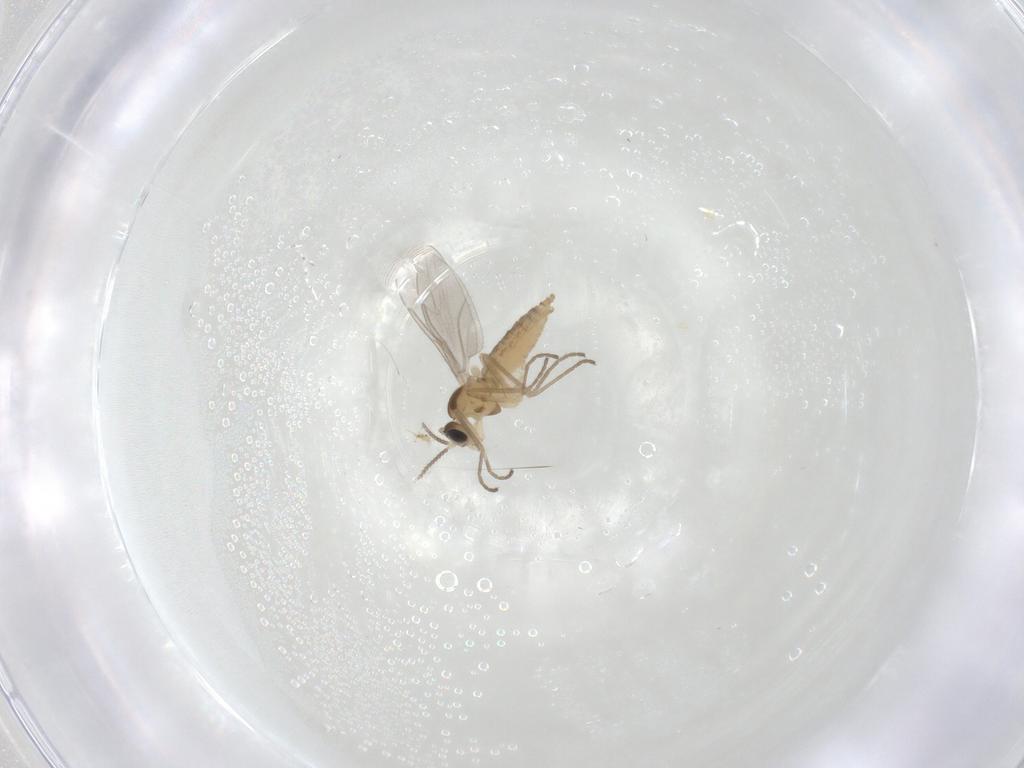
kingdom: Animalia
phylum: Arthropoda
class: Insecta
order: Diptera
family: Cecidomyiidae
